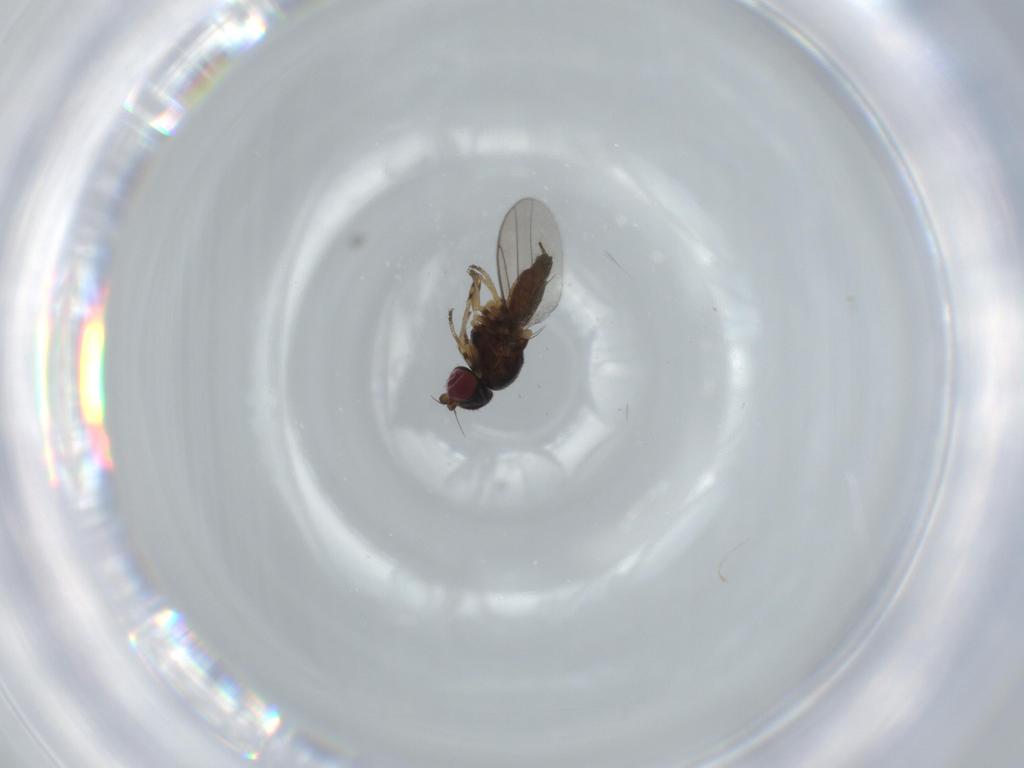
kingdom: Animalia
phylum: Arthropoda
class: Insecta
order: Diptera
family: Chloropidae
